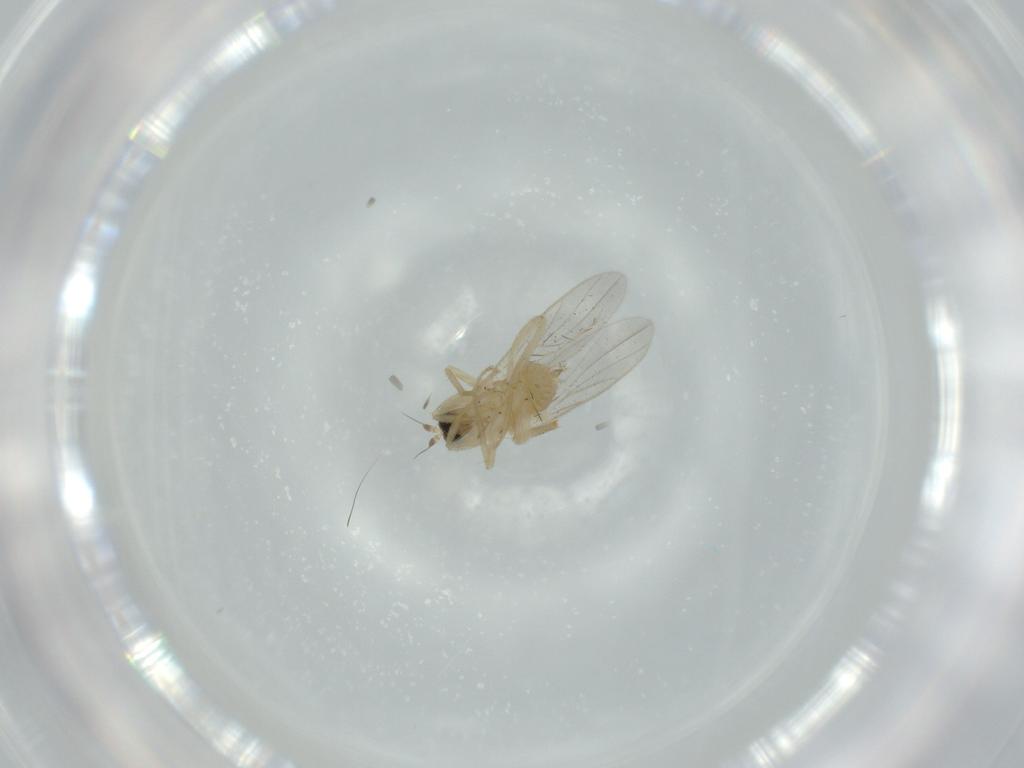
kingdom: Animalia
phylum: Arthropoda
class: Insecta
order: Diptera
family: Hybotidae
